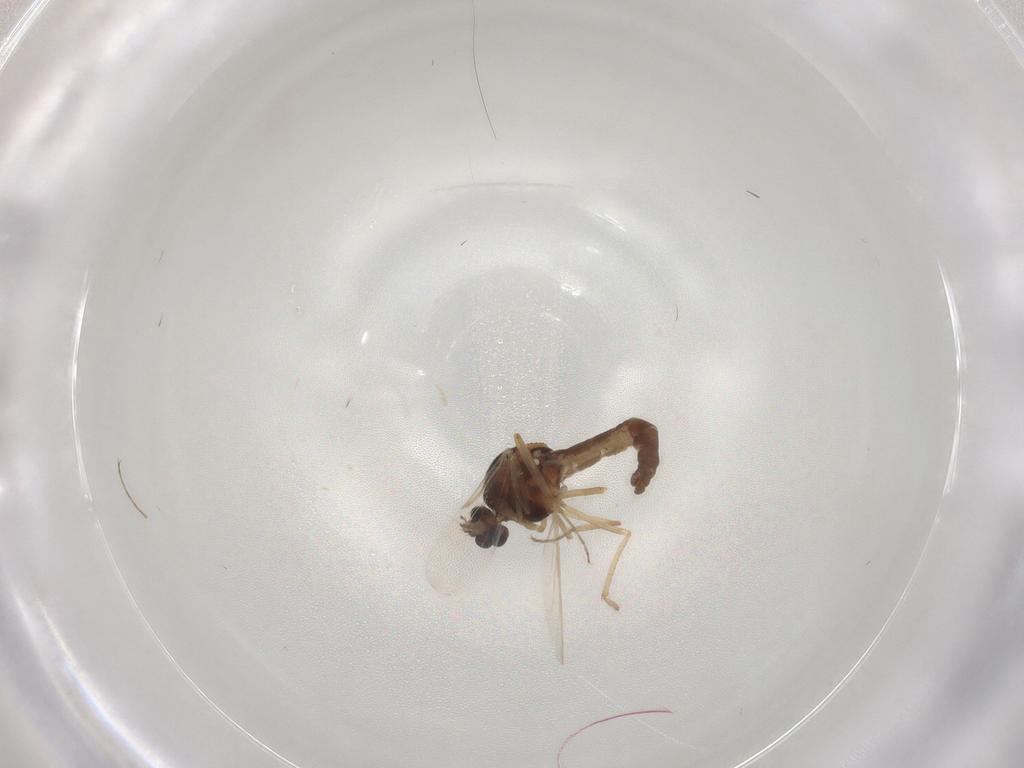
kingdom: Animalia
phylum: Arthropoda
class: Insecta
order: Diptera
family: Ceratopogonidae
